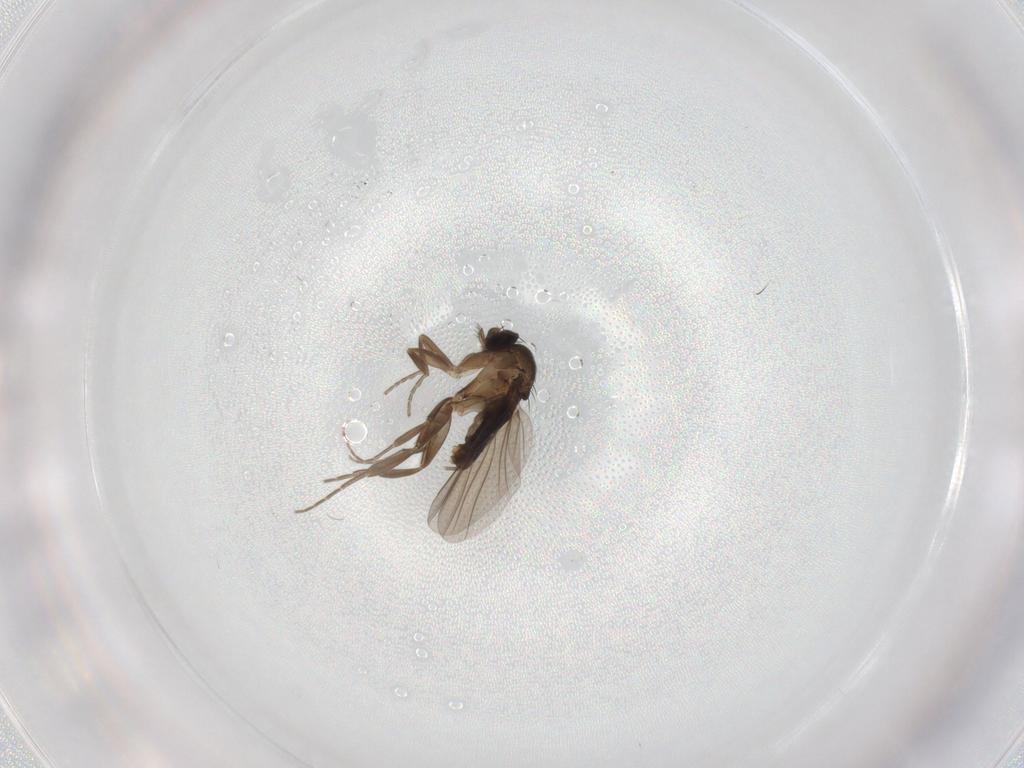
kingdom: Animalia
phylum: Arthropoda
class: Insecta
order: Diptera
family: Phoridae
